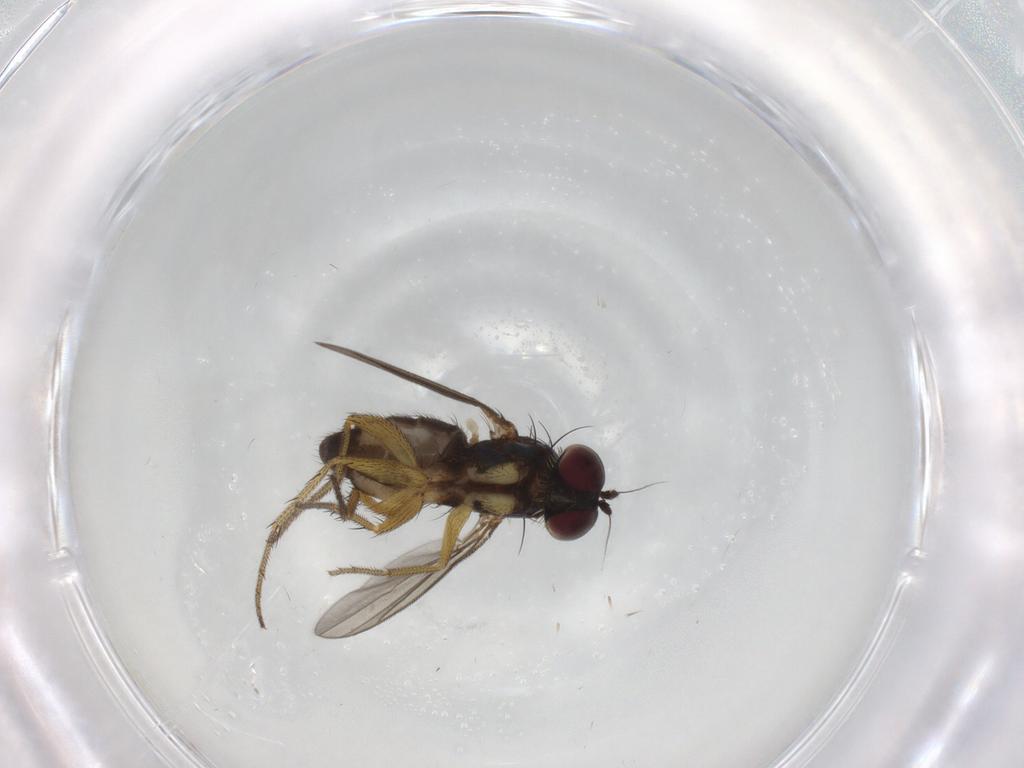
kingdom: Animalia
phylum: Arthropoda
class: Insecta
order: Diptera
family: Dolichopodidae
